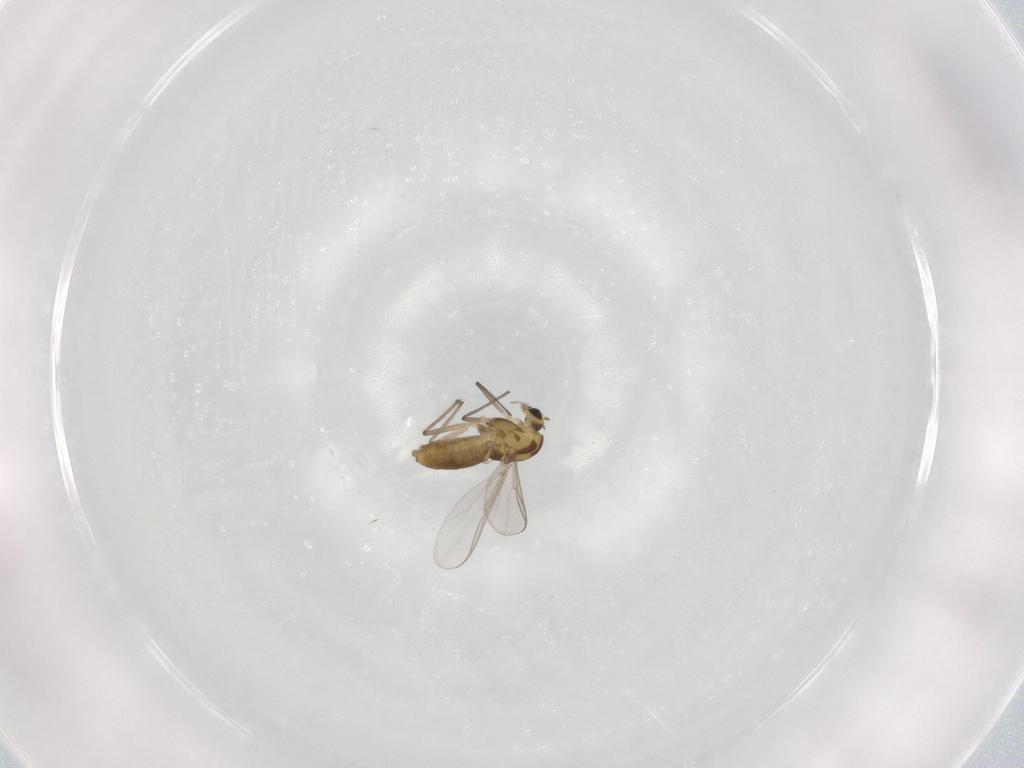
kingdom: Animalia
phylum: Arthropoda
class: Insecta
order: Diptera
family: Chironomidae
